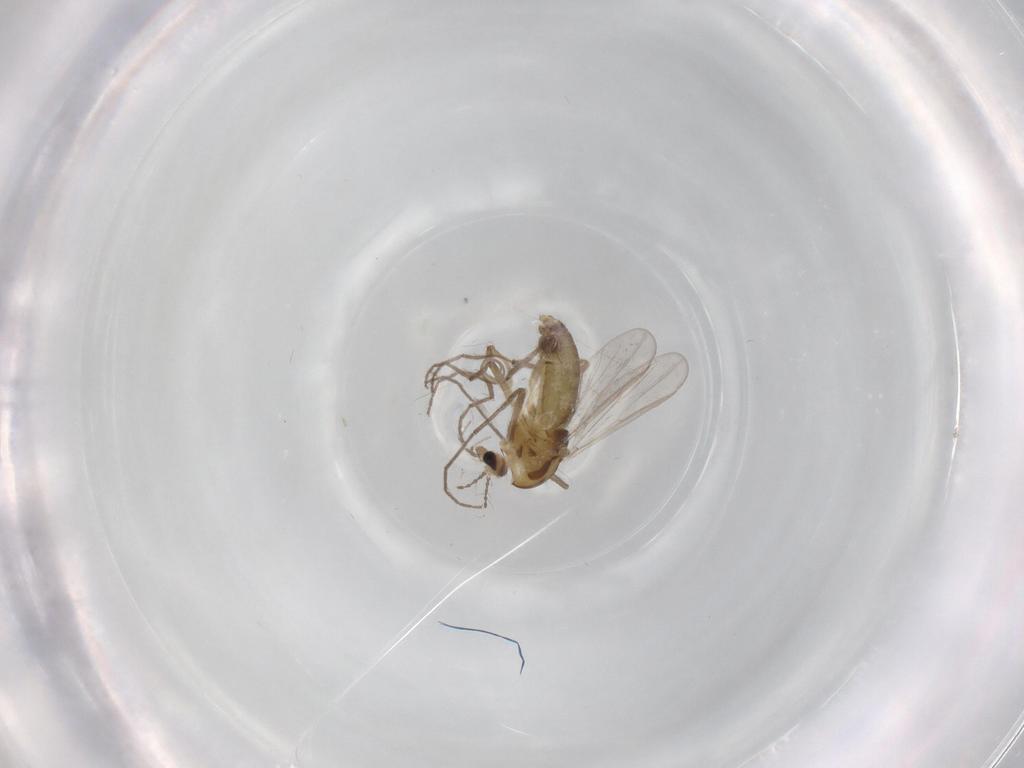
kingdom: Animalia
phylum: Arthropoda
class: Insecta
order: Diptera
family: Chironomidae
